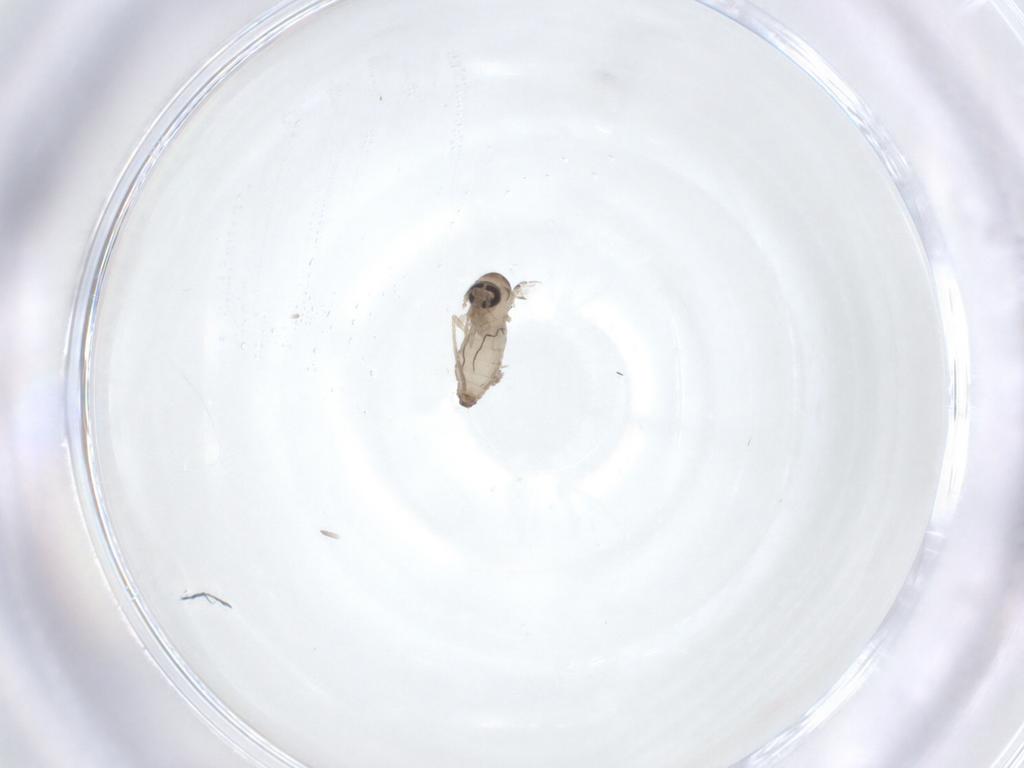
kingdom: Animalia
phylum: Arthropoda
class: Insecta
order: Diptera
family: Psychodidae
